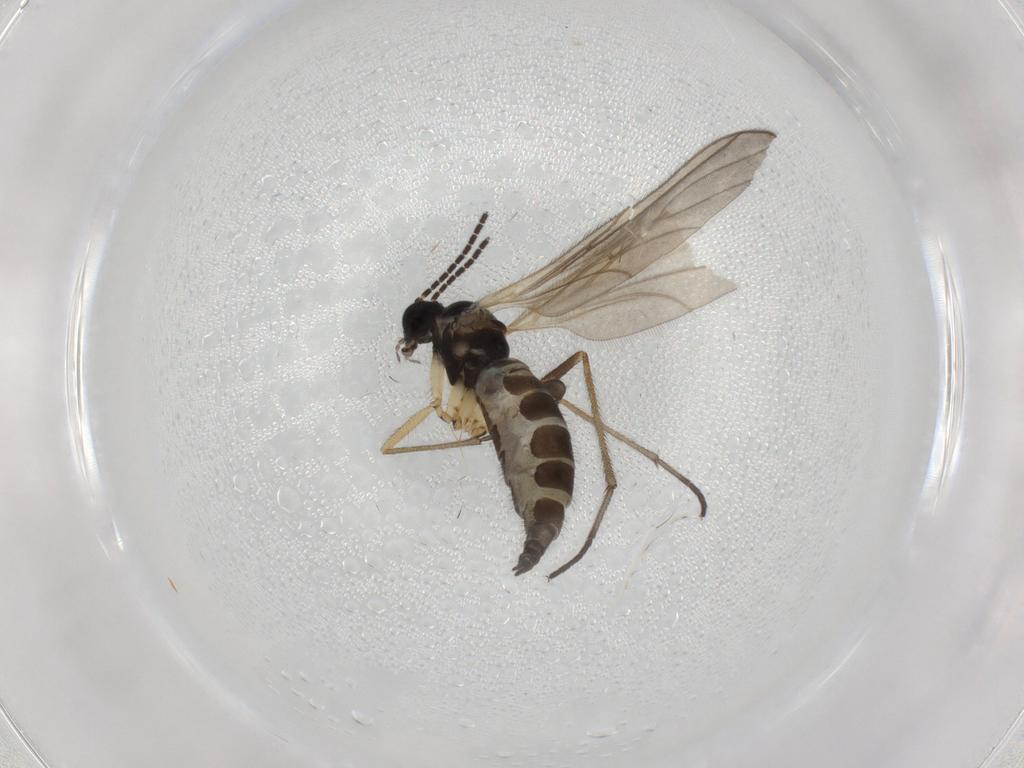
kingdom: Animalia
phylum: Arthropoda
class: Insecta
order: Diptera
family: Sciaridae
